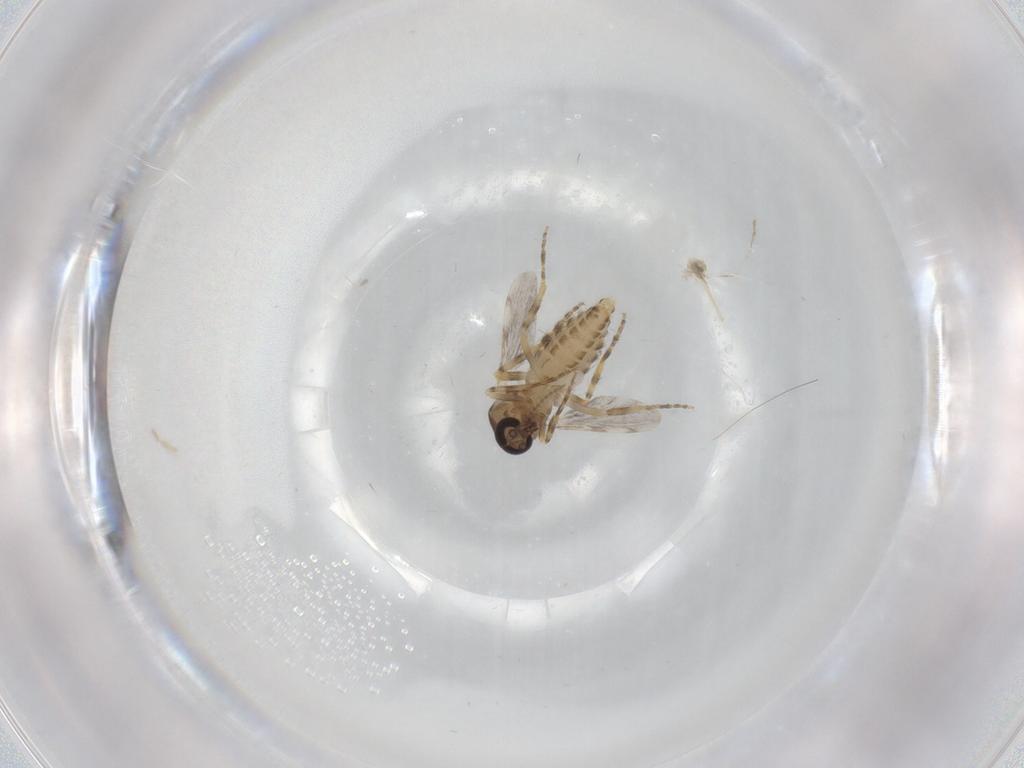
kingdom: Animalia
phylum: Arthropoda
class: Insecta
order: Diptera
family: Ceratopogonidae
